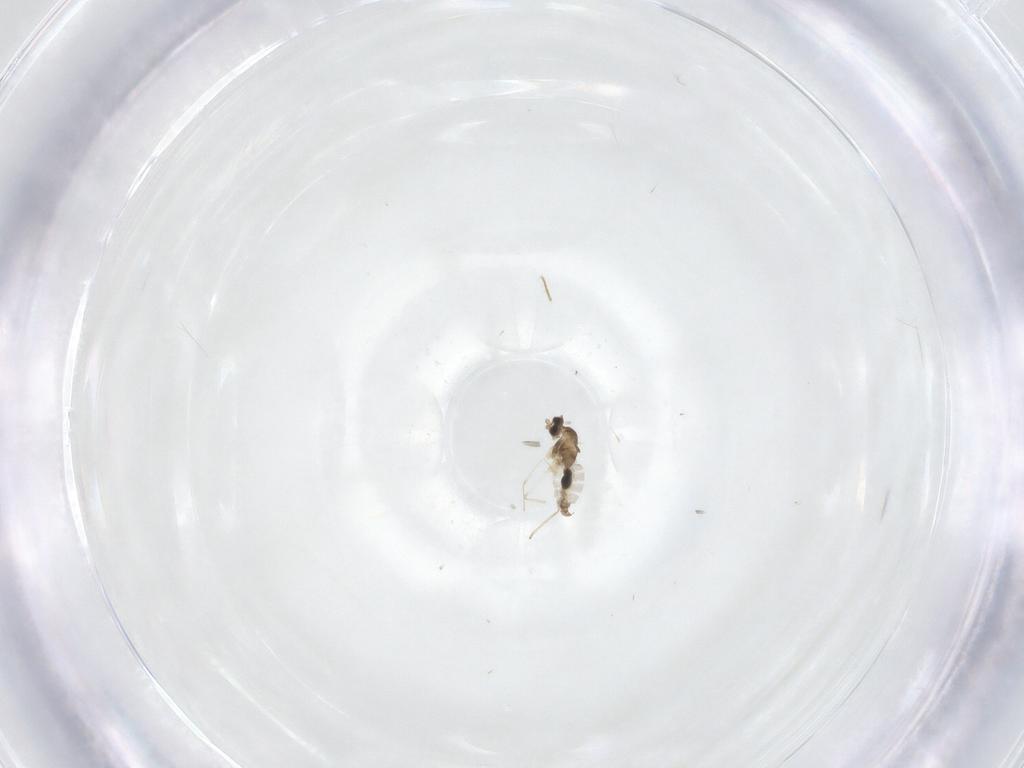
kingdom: Animalia
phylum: Arthropoda
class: Insecta
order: Diptera
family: Chironomidae
